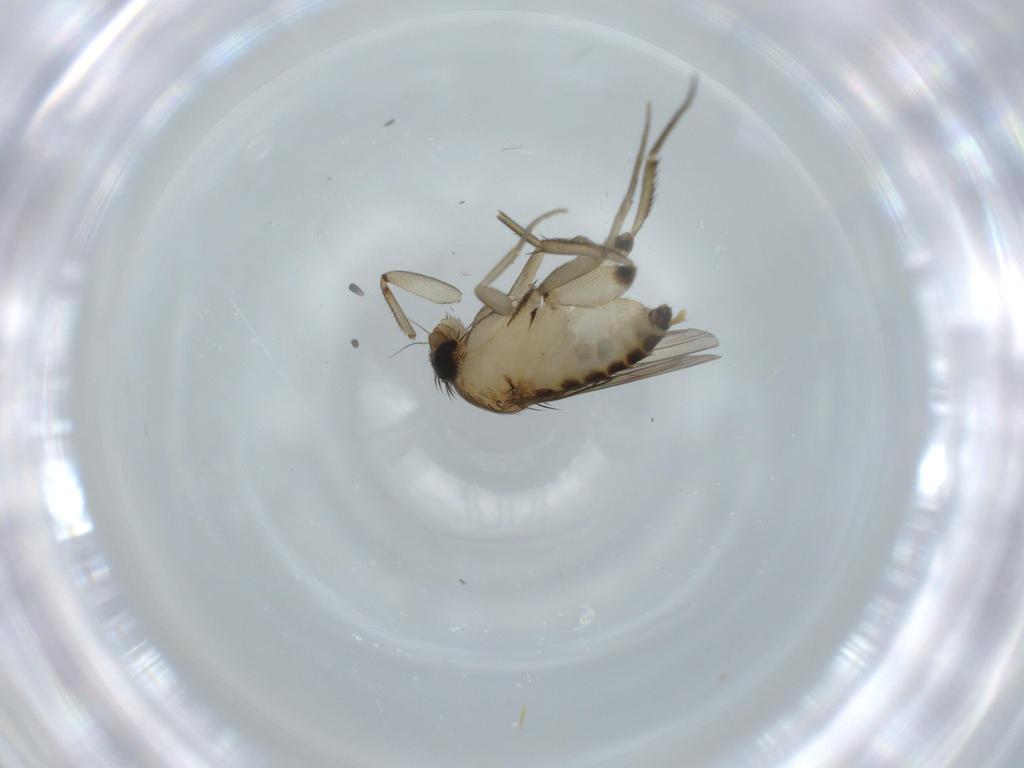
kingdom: Animalia
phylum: Arthropoda
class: Insecta
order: Diptera
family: Phoridae
